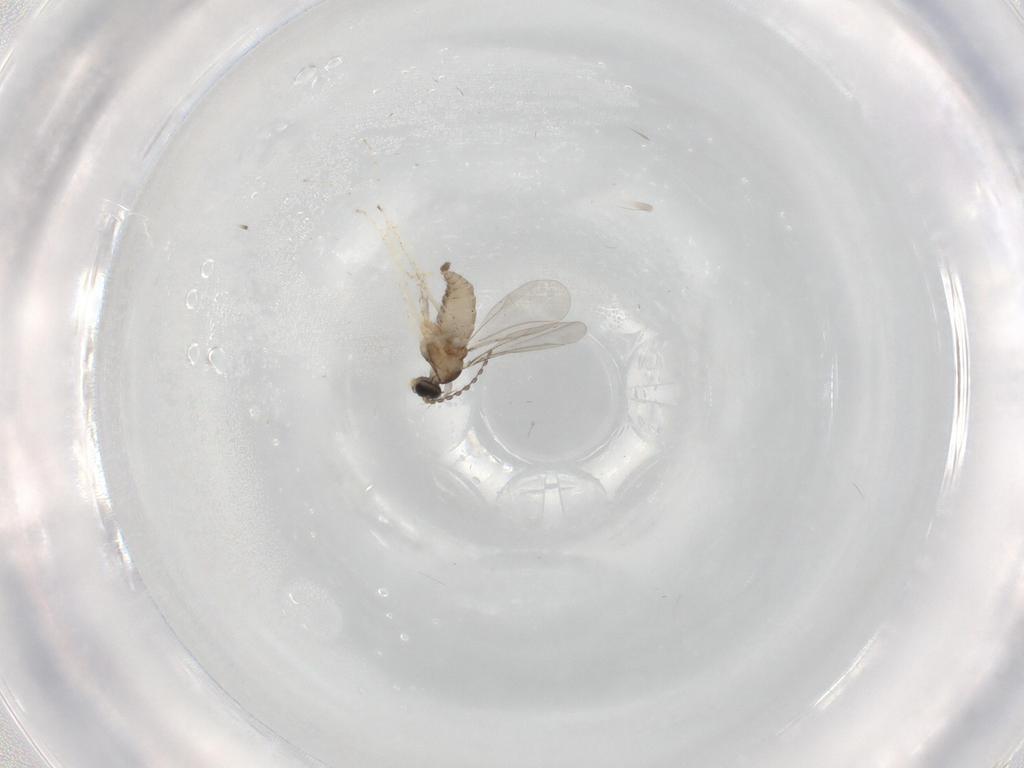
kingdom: Animalia
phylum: Arthropoda
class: Insecta
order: Diptera
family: Cecidomyiidae
